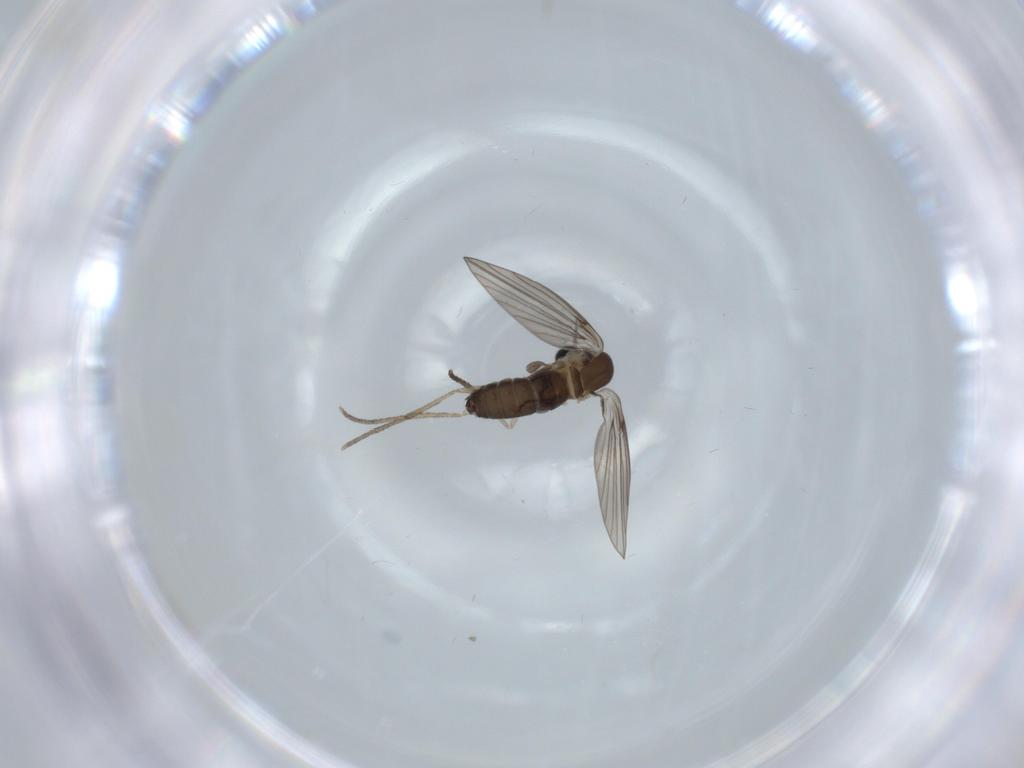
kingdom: Animalia
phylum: Arthropoda
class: Insecta
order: Diptera
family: Psychodidae
